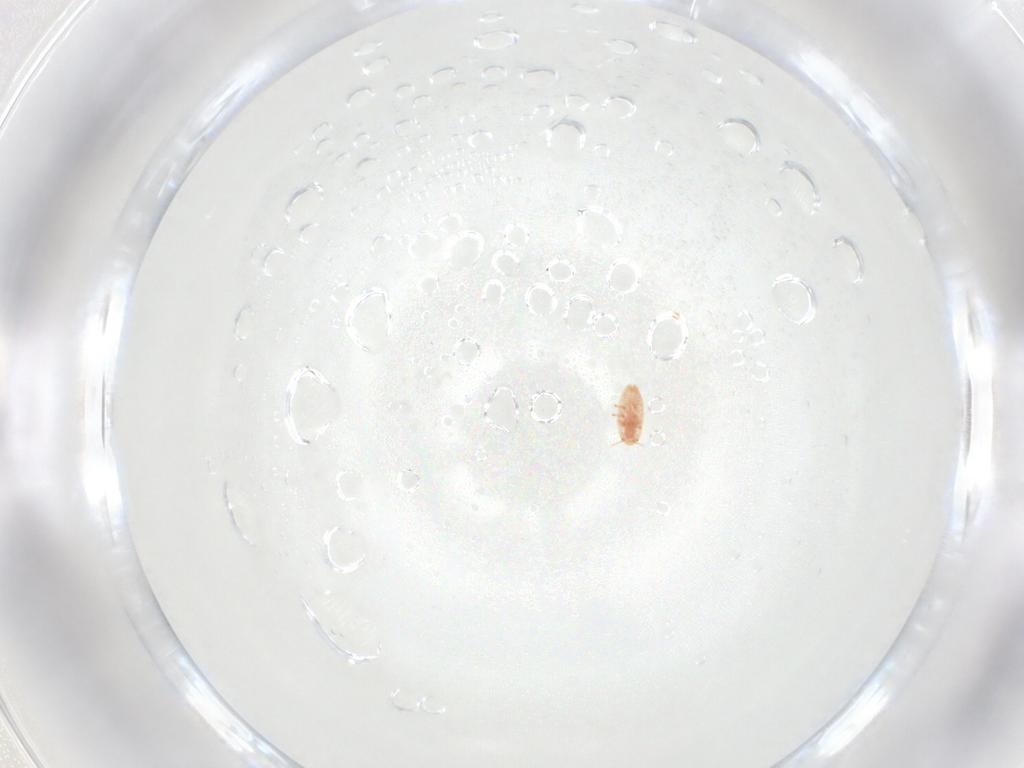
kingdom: Animalia
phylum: Arthropoda
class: Insecta
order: Hemiptera
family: Coccidae
